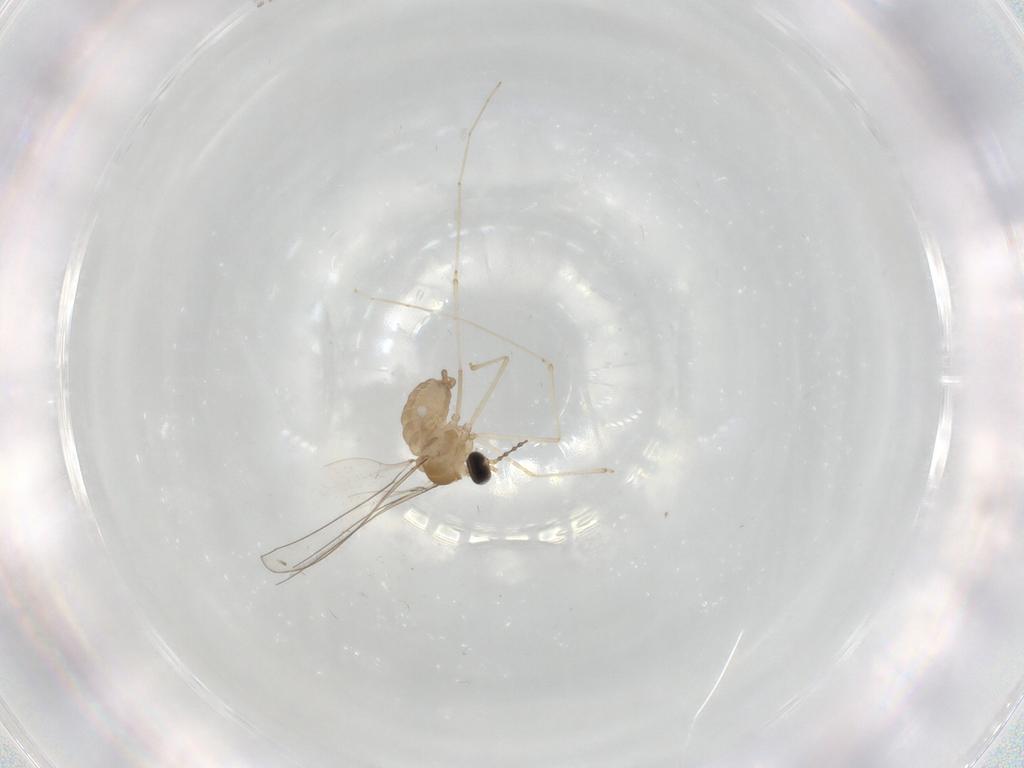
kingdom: Animalia
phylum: Arthropoda
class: Insecta
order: Diptera
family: Cecidomyiidae
